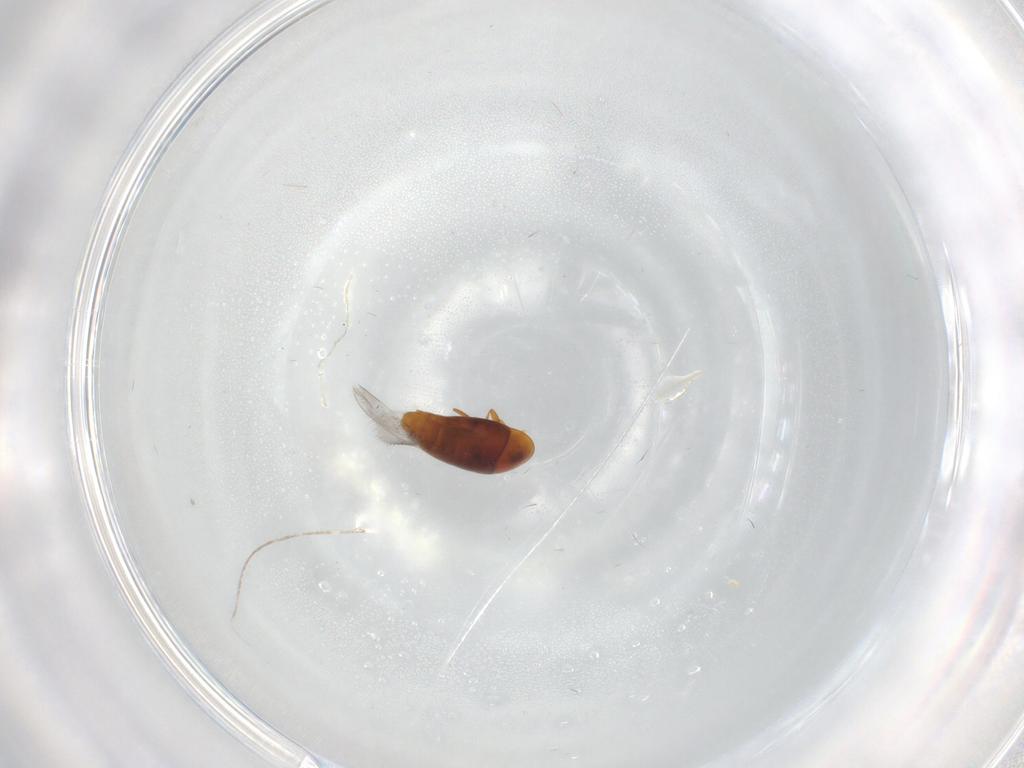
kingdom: Animalia
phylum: Arthropoda
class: Insecta
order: Coleoptera
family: Corylophidae
